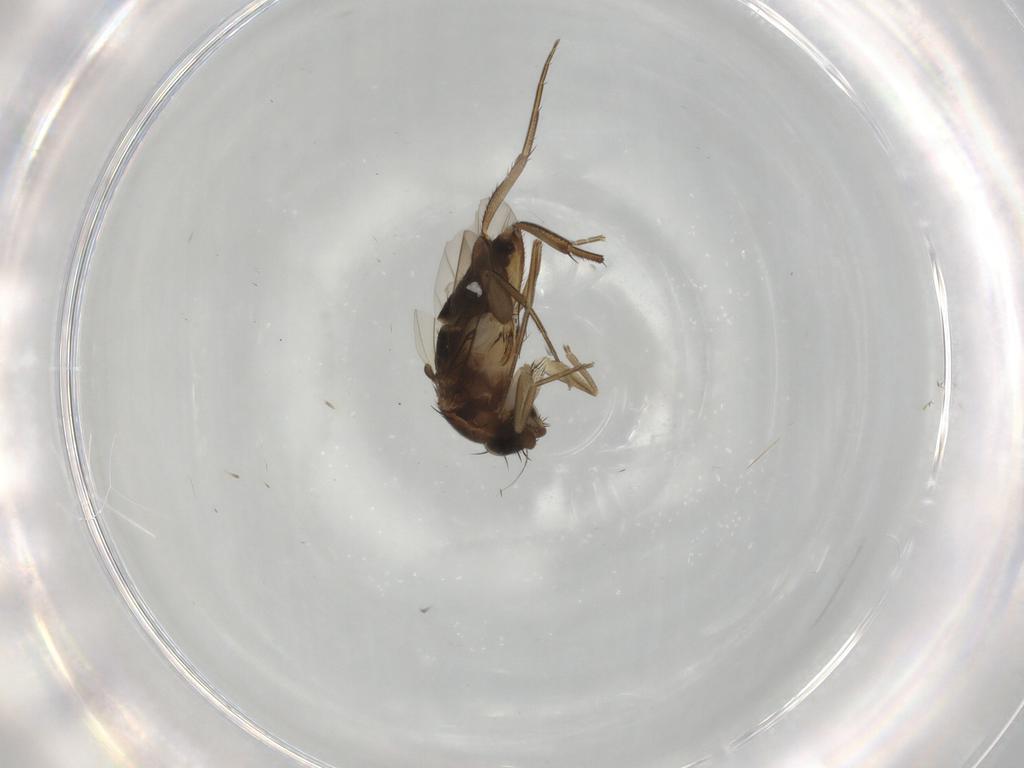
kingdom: Animalia
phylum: Arthropoda
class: Insecta
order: Diptera
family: Phoridae
